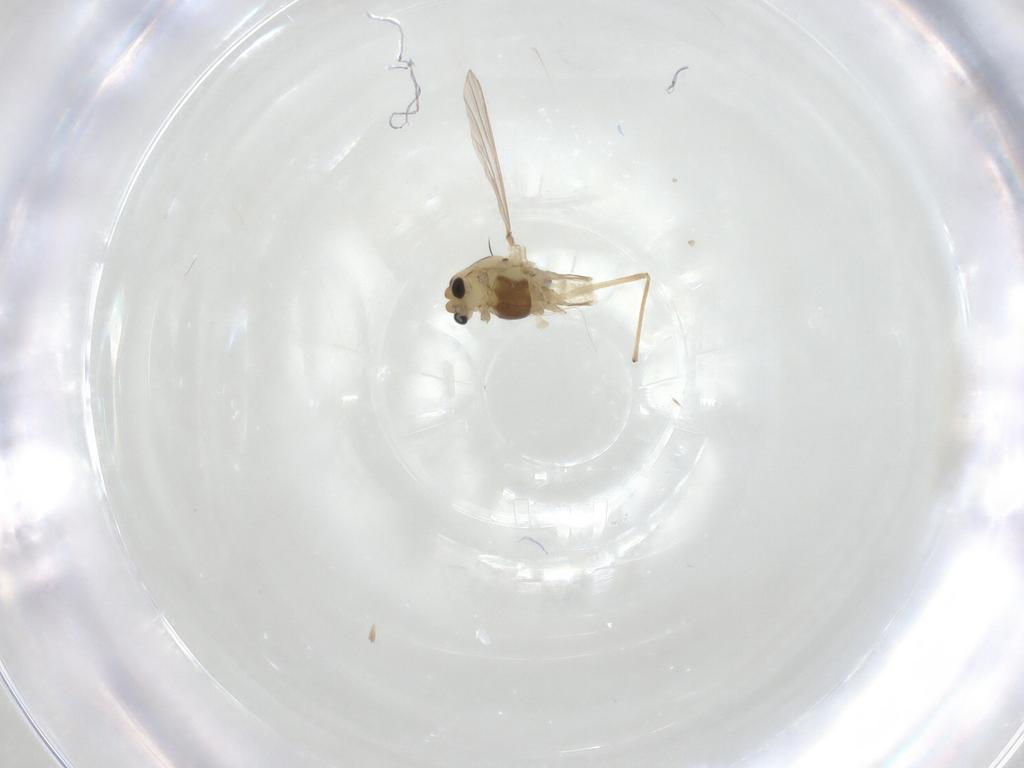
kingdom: Animalia
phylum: Arthropoda
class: Insecta
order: Diptera
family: Chironomidae
